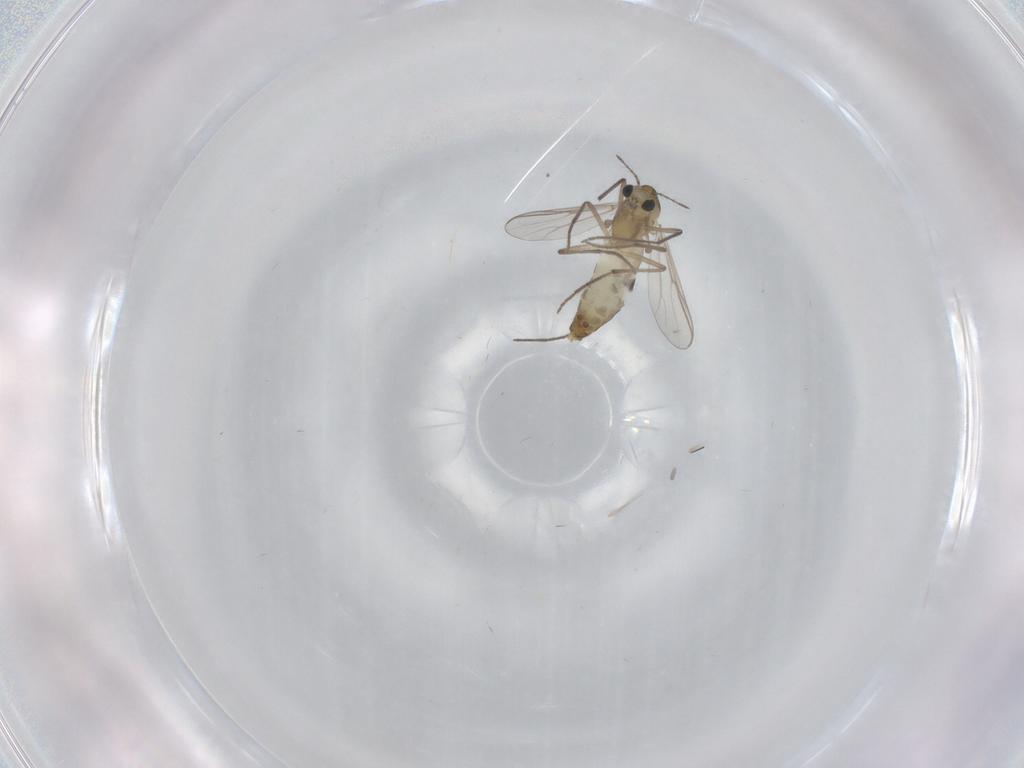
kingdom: Animalia
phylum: Arthropoda
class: Insecta
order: Diptera
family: Chironomidae
